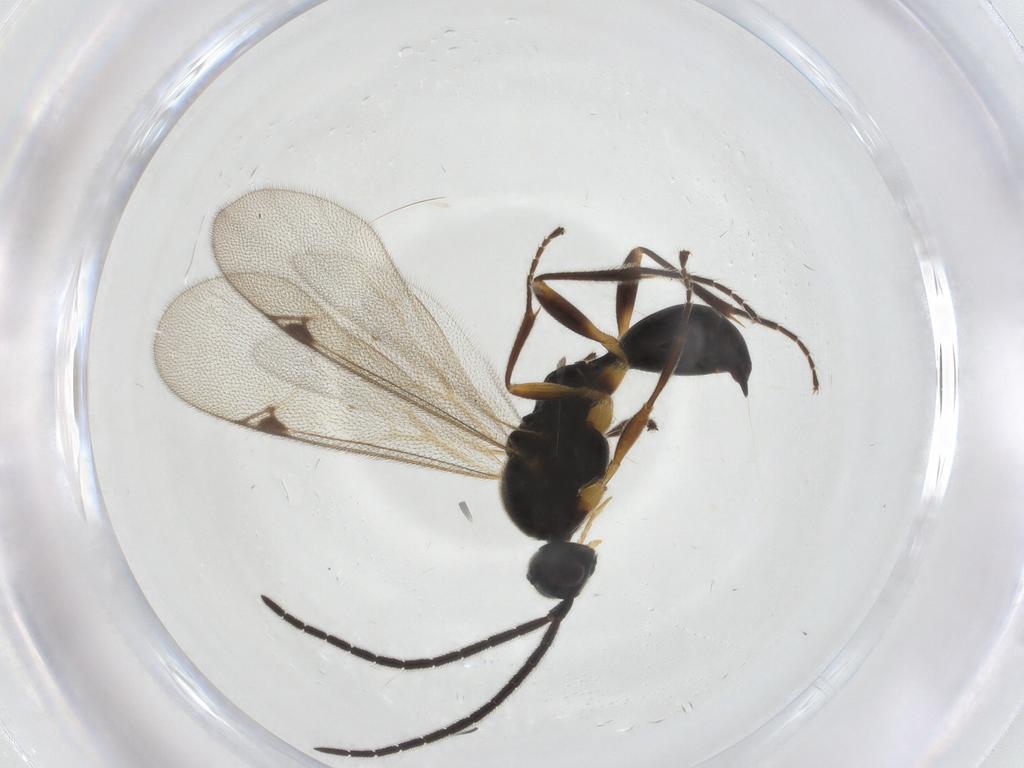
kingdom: Animalia
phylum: Arthropoda
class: Insecta
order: Hymenoptera
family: Proctotrupidae
